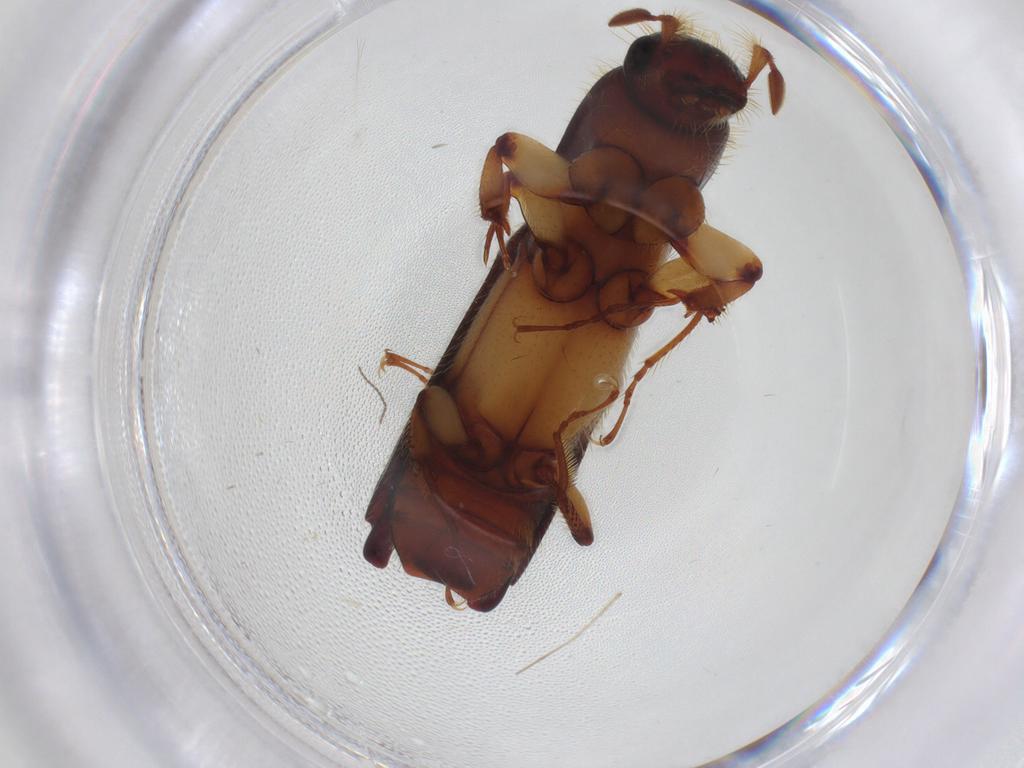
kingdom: Animalia
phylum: Arthropoda
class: Insecta
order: Coleoptera
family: Curculionidae
